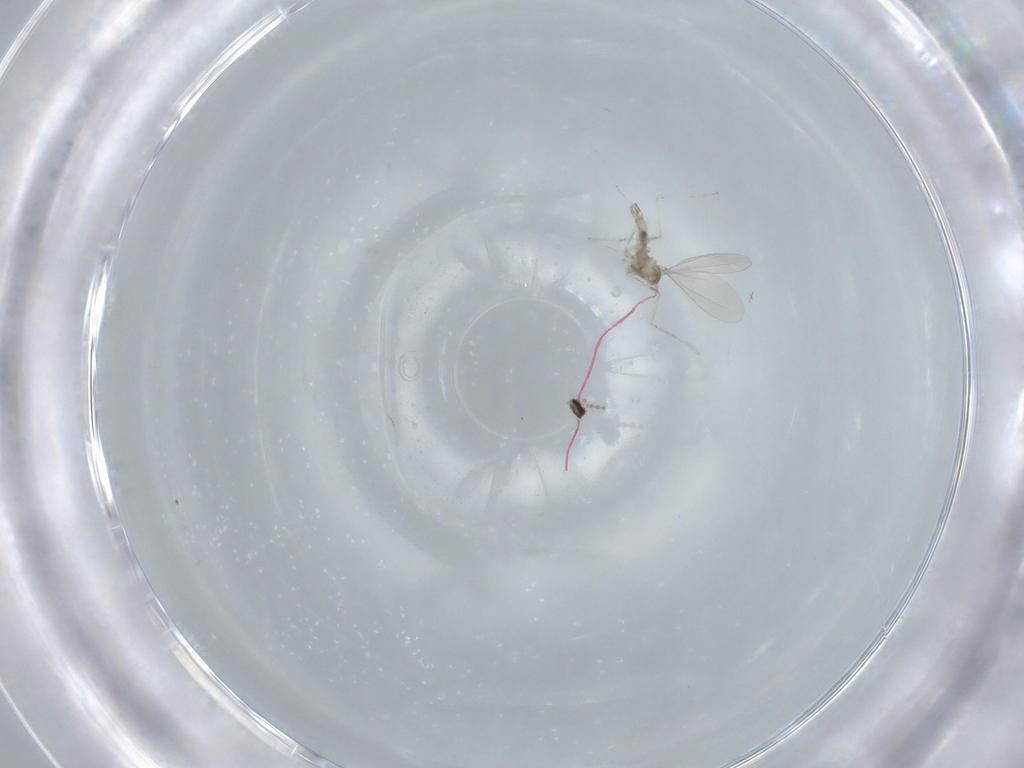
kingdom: Animalia
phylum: Arthropoda
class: Insecta
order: Diptera
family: Cecidomyiidae
